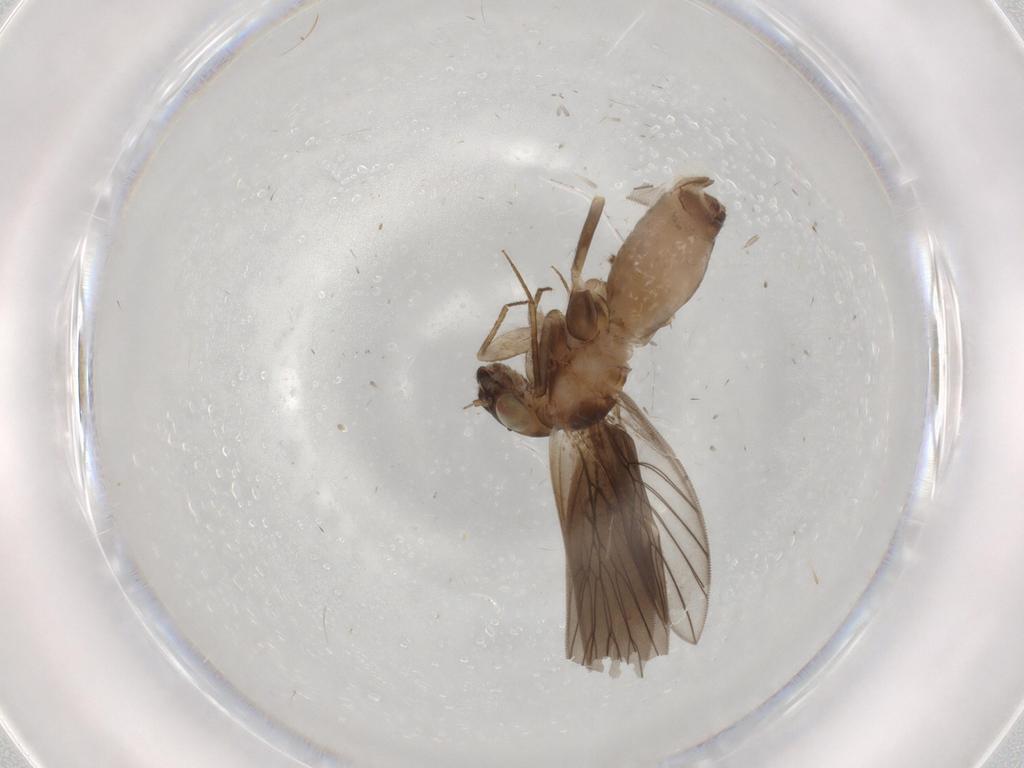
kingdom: Animalia
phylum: Arthropoda
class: Insecta
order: Psocodea
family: Lepidopsocidae
